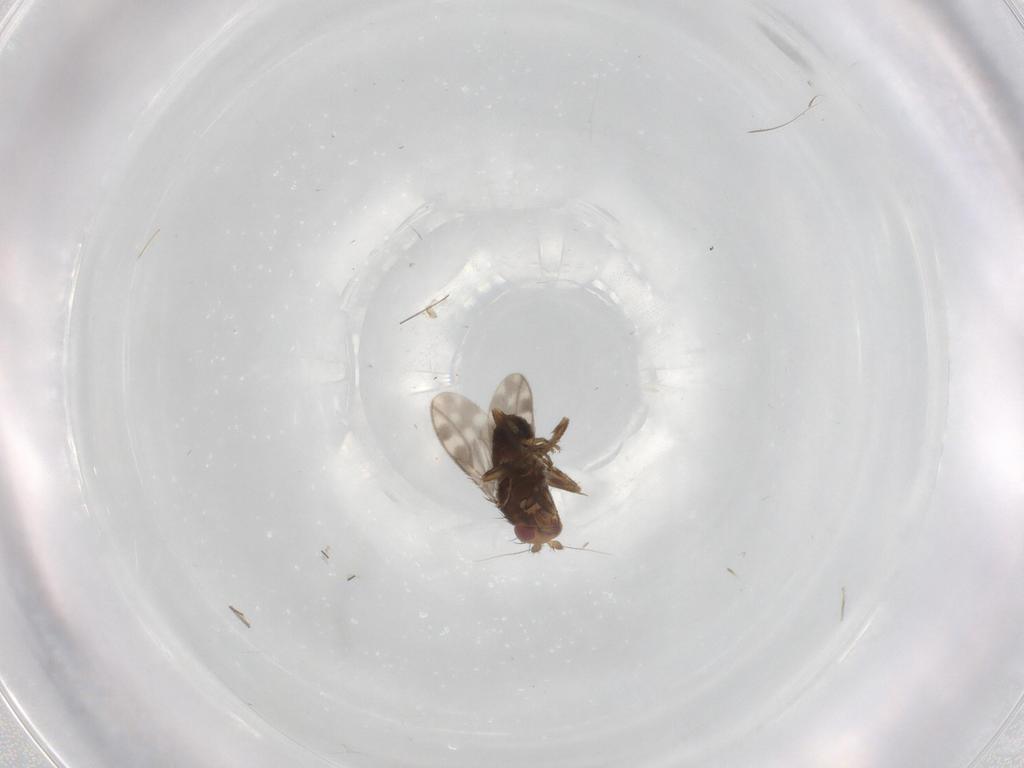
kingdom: Animalia
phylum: Arthropoda
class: Insecta
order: Diptera
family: Sphaeroceridae
